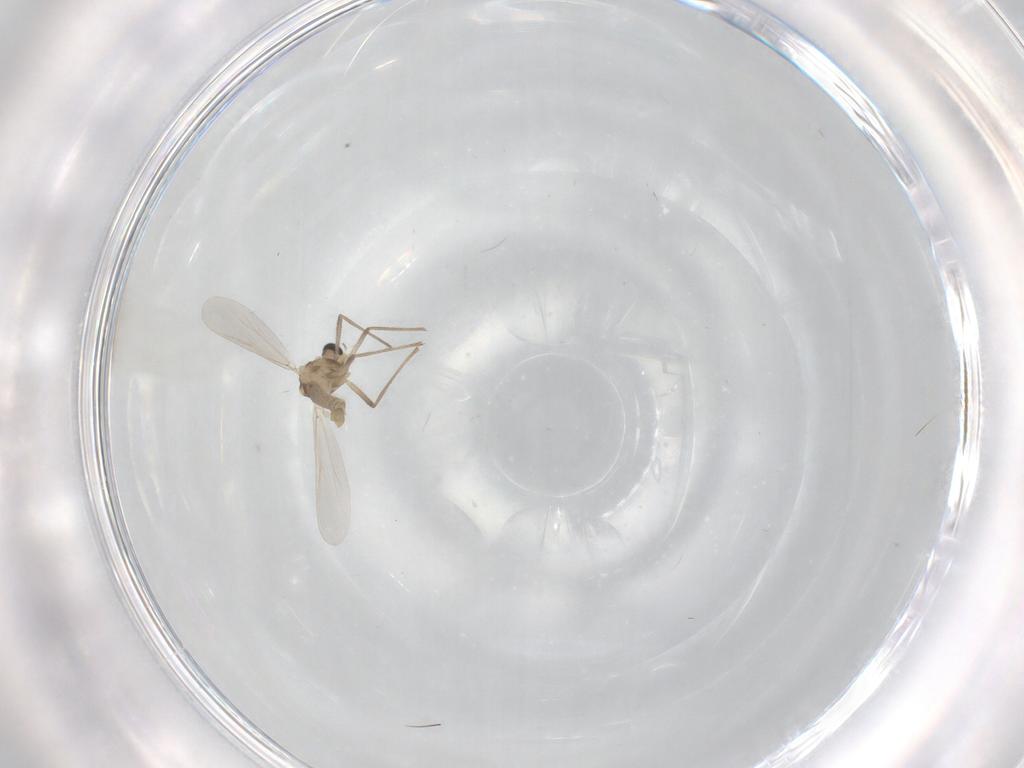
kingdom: Animalia
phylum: Arthropoda
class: Insecta
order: Diptera
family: Chironomidae
